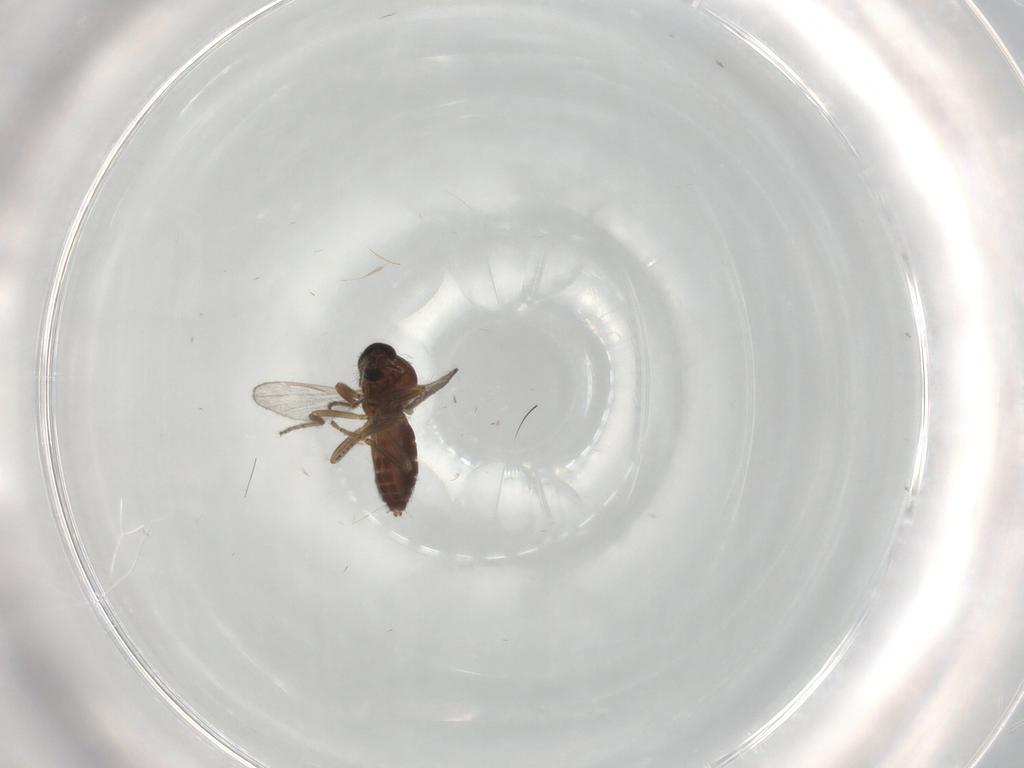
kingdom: Animalia
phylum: Arthropoda
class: Insecta
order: Diptera
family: Ceratopogonidae
